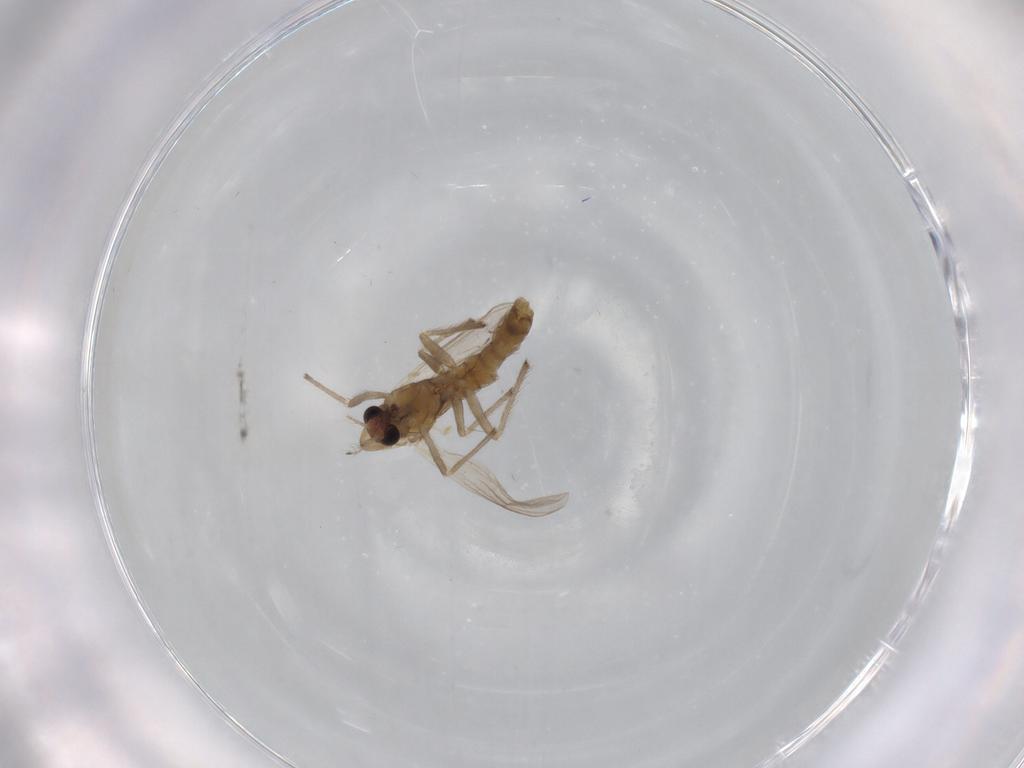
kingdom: Animalia
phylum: Arthropoda
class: Insecta
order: Diptera
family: Chironomidae
